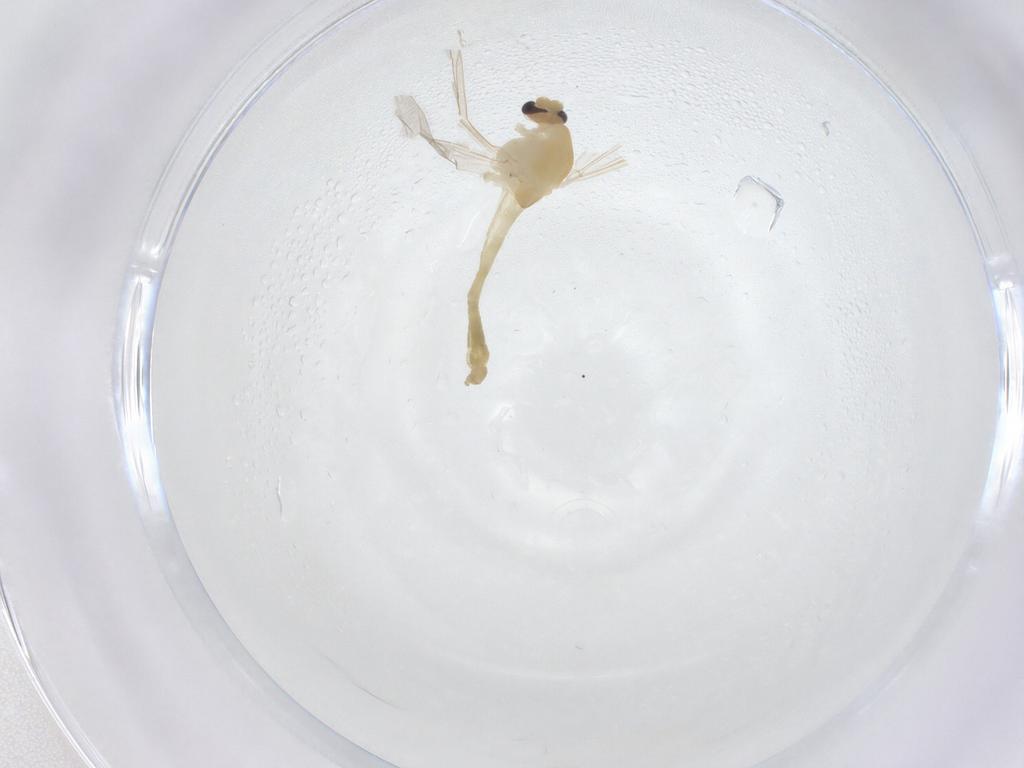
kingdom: Animalia
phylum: Arthropoda
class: Insecta
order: Diptera
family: Chironomidae
